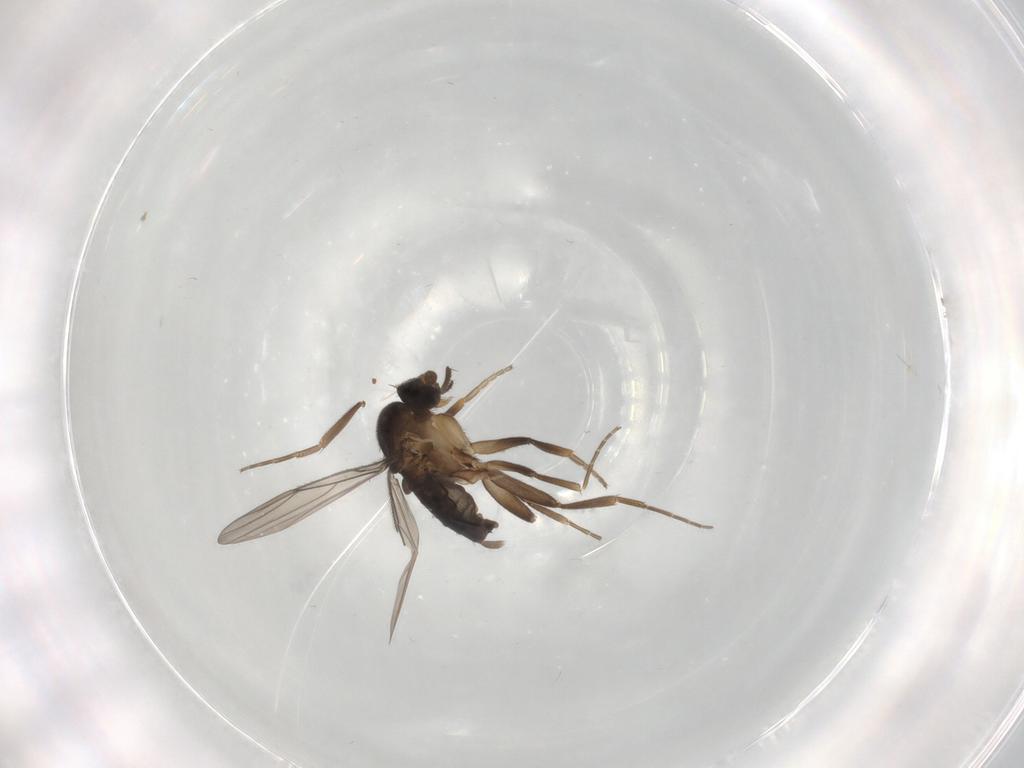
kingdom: Animalia
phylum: Arthropoda
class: Insecta
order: Diptera
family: Phoridae
